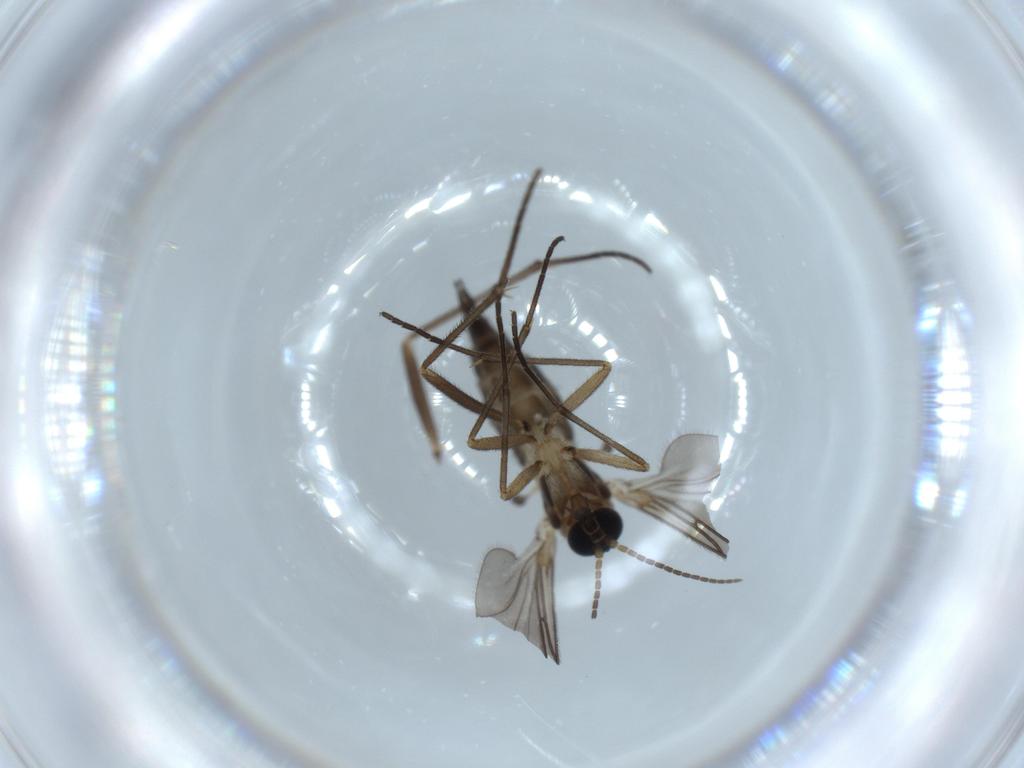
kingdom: Animalia
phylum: Arthropoda
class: Insecta
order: Diptera
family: Sciaridae
